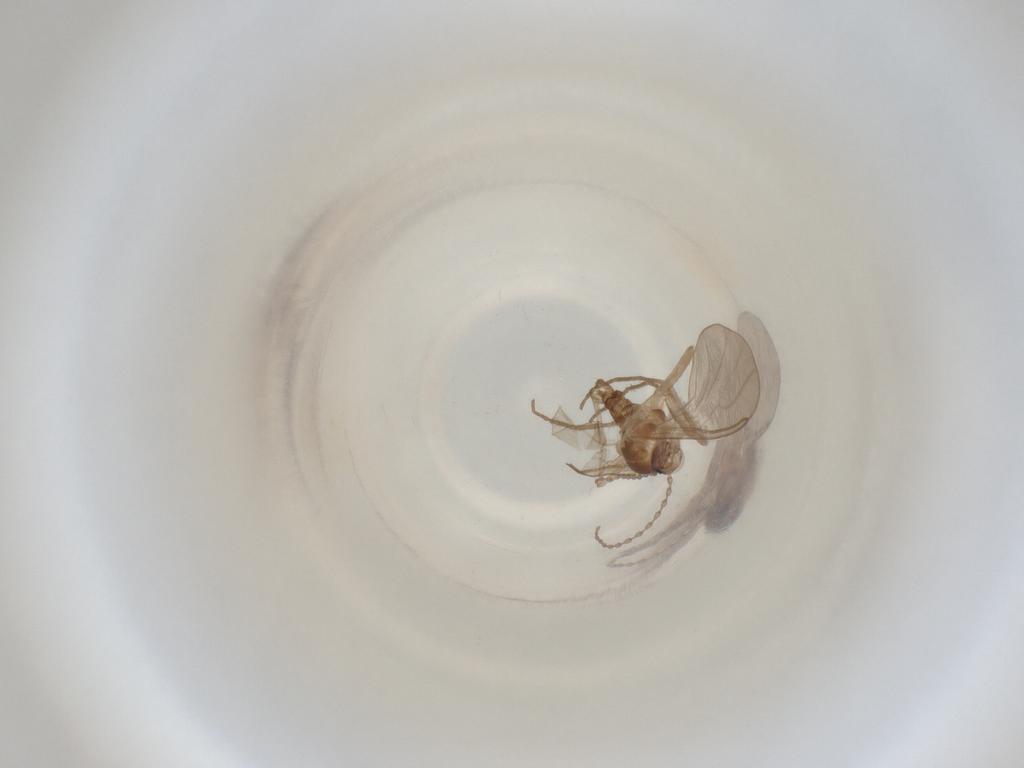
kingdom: Animalia
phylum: Arthropoda
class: Insecta
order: Diptera
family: Cecidomyiidae
